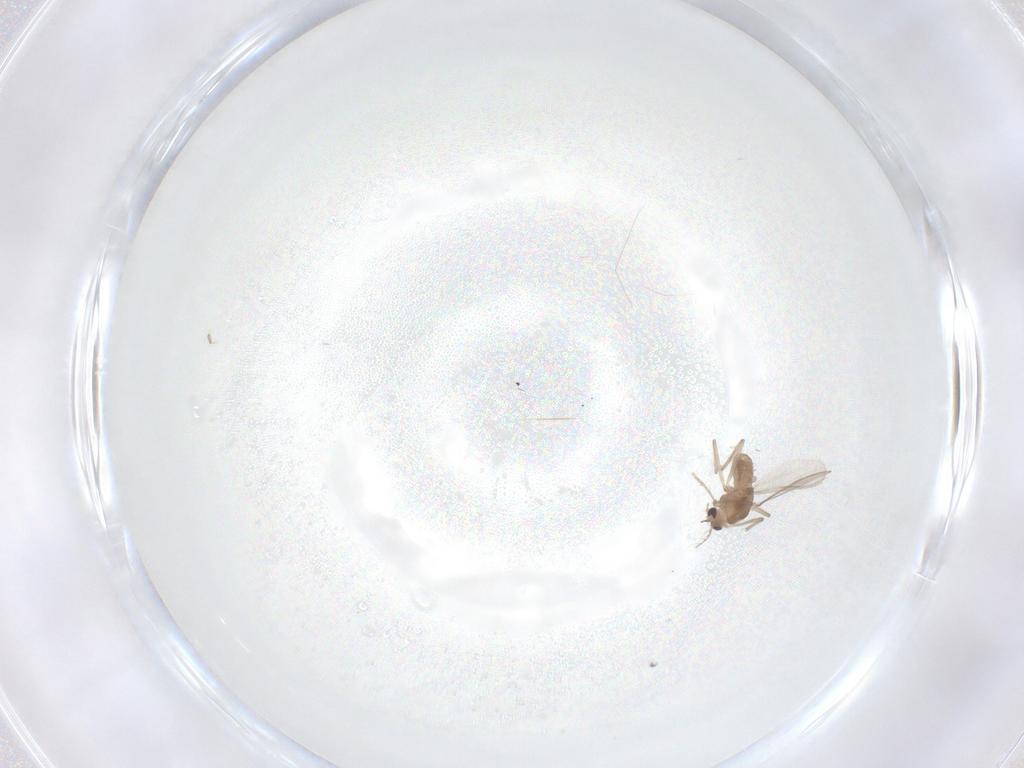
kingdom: Animalia
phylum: Arthropoda
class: Insecta
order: Diptera
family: Chironomidae
